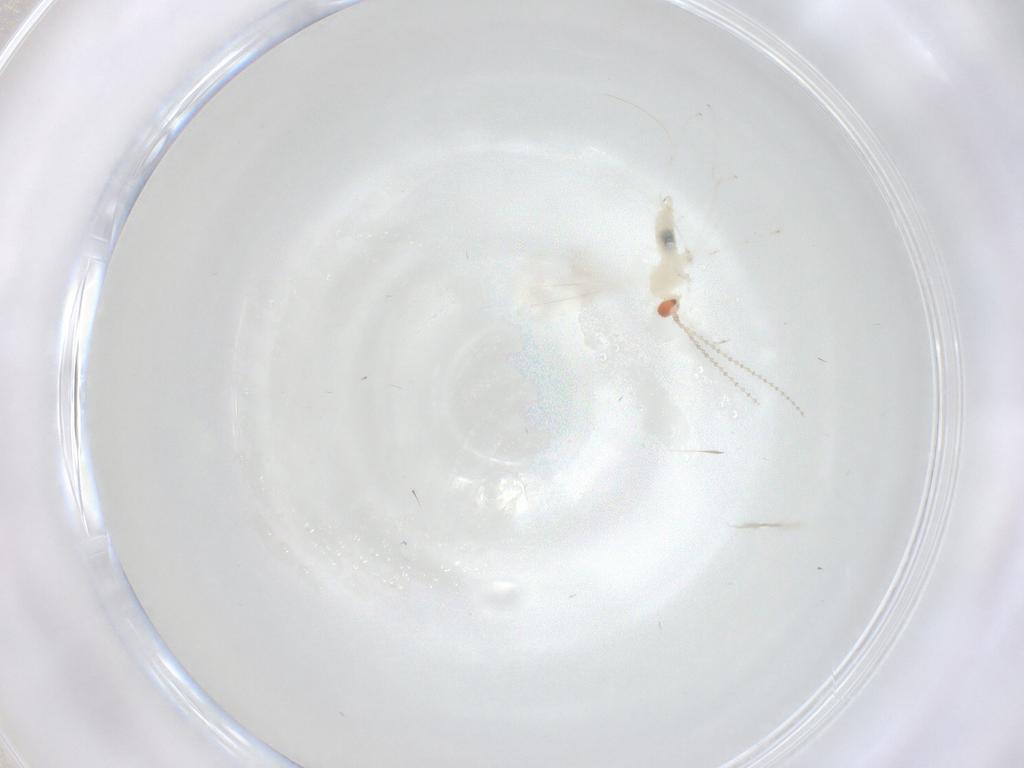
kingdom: Animalia
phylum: Arthropoda
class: Insecta
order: Diptera
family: Cecidomyiidae
